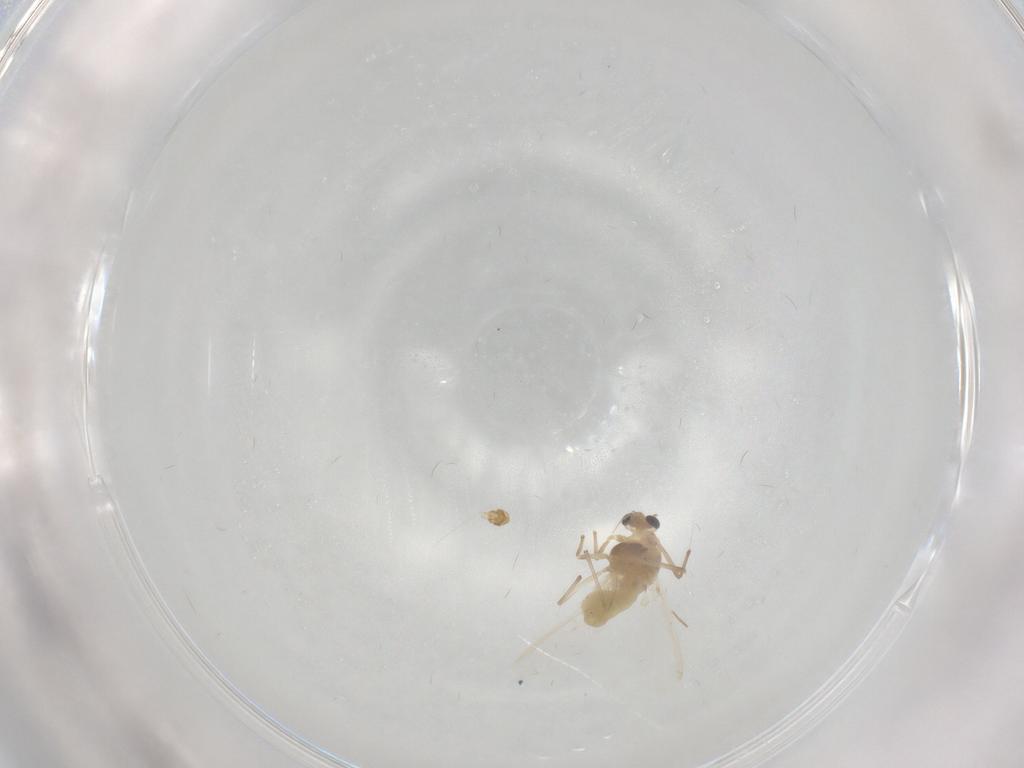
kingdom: Animalia
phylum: Arthropoda
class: Insecta
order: Diptera
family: Chironomidae
